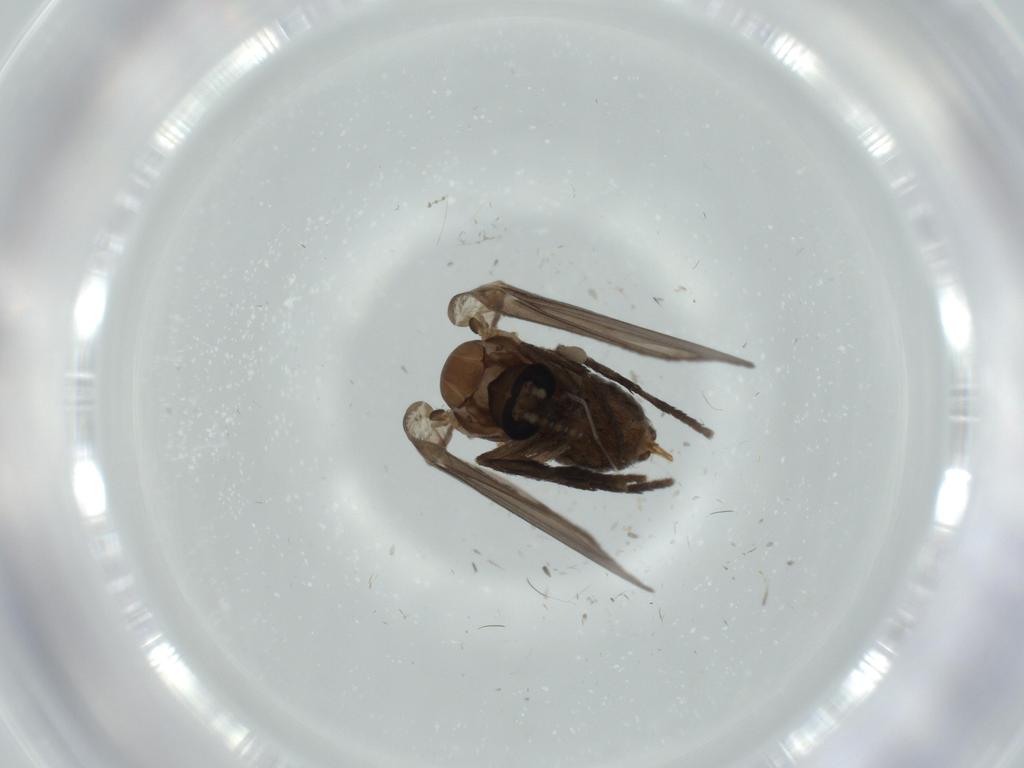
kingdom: Animalia
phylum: Arthropoda
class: Insecta
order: Diptera
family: Psychodidae
